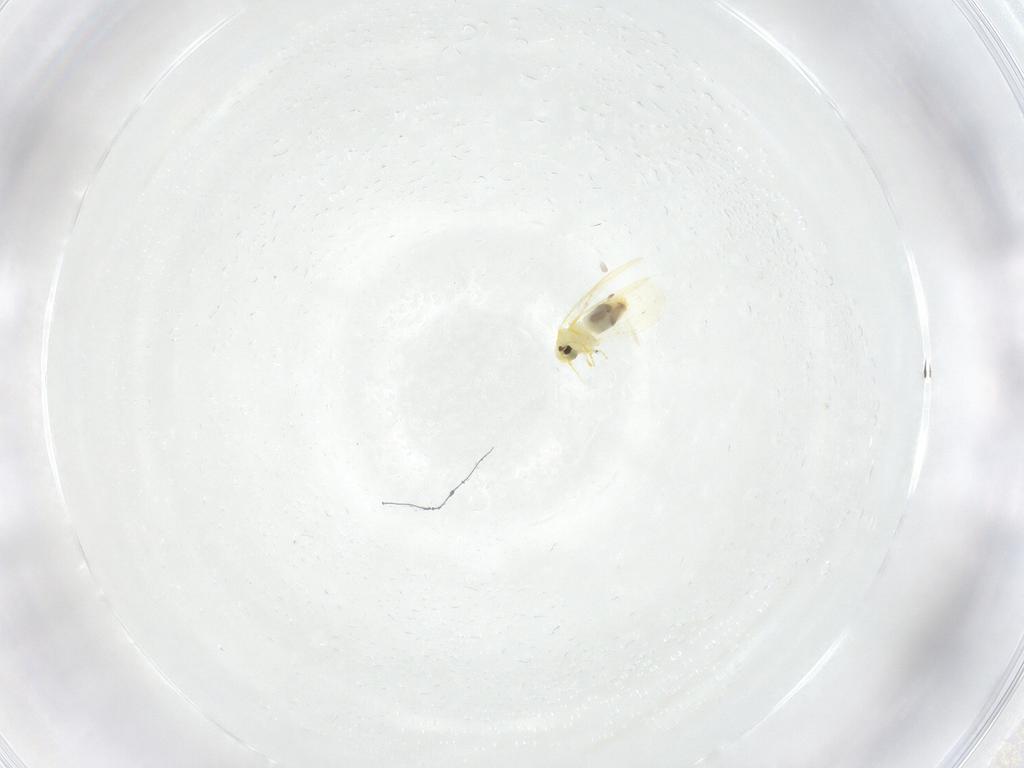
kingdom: Animalia
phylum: Arthropoda
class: Insecta
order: Hemiptera
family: Aleyrodidae
